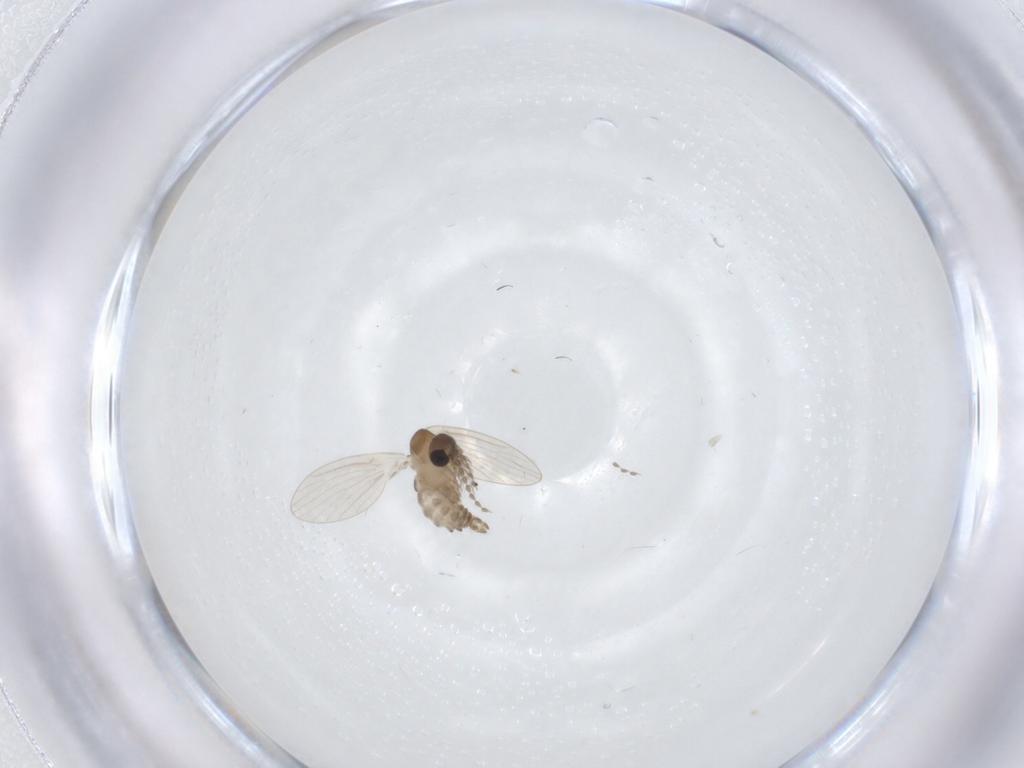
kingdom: Animalia
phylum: Arthropoda
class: Insecta
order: Diptera
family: Psychodidae
